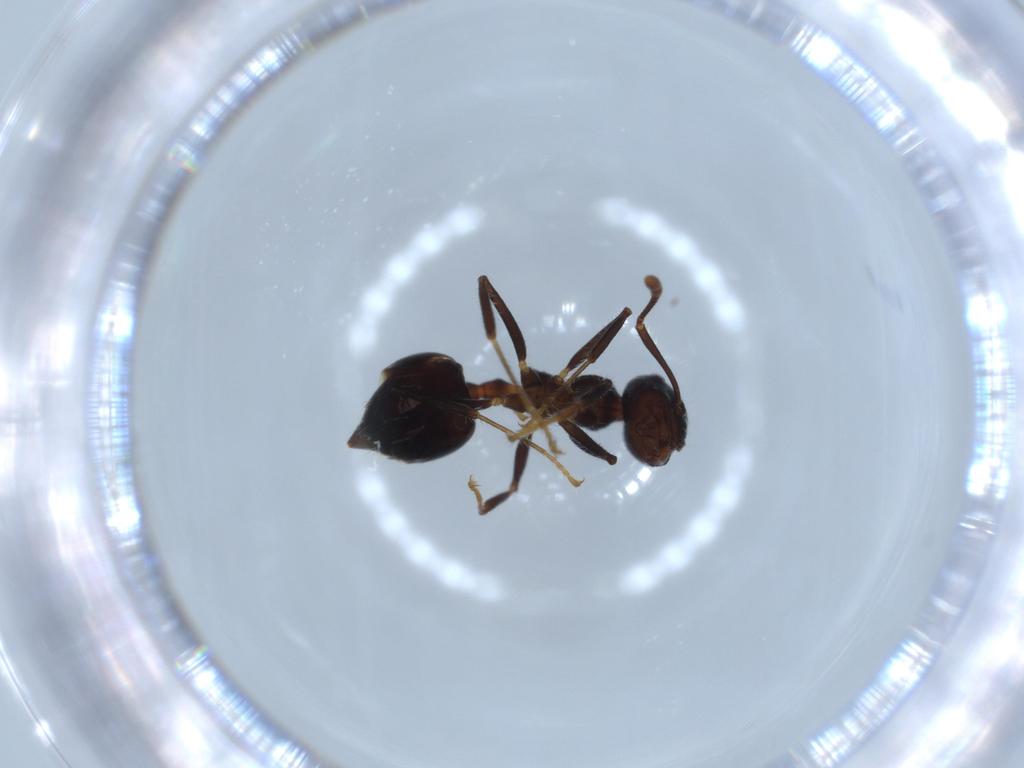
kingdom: Animalia
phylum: Arthropoda
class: Insecta
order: Hymenoptera
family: Formicidae
